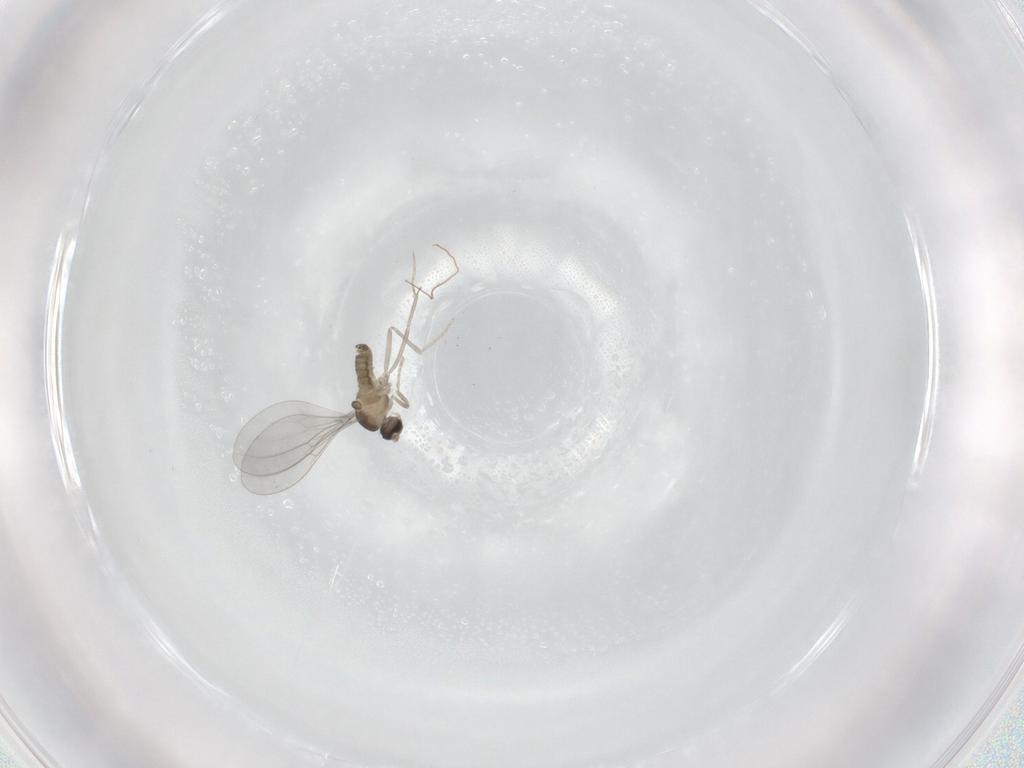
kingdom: Animalia
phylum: Arthropoda
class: Insecta
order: Diptera
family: Cecidomyiidae
